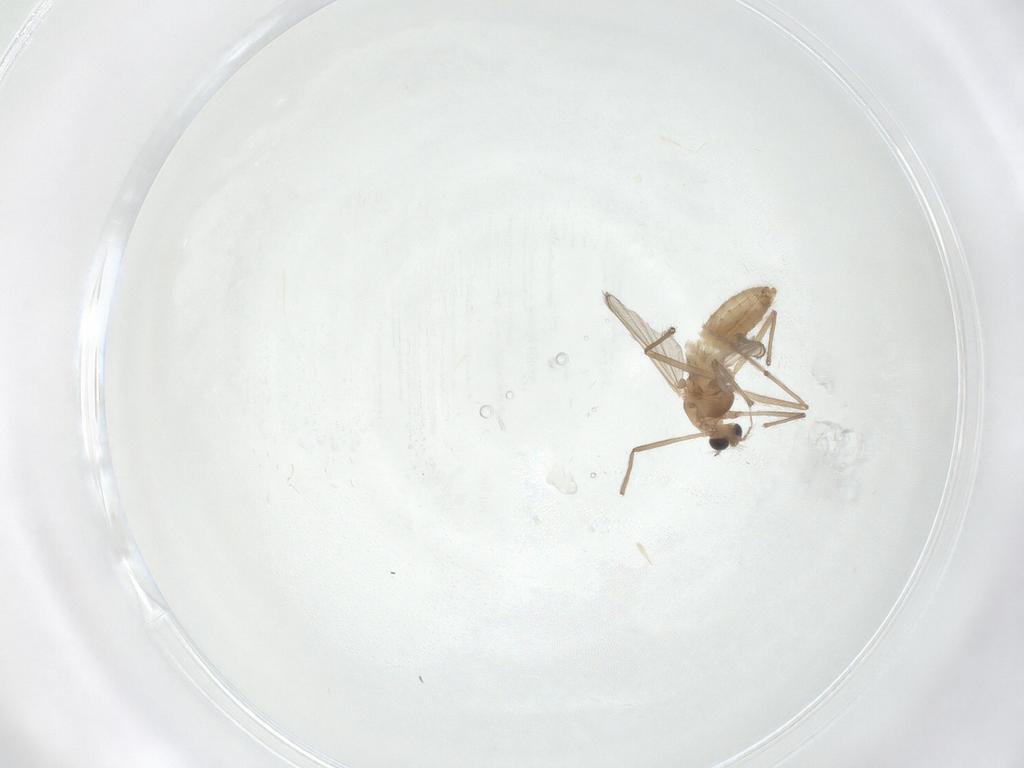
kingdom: Animalia
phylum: Arthropoda
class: Insecta
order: Diptera
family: Chironomidae
